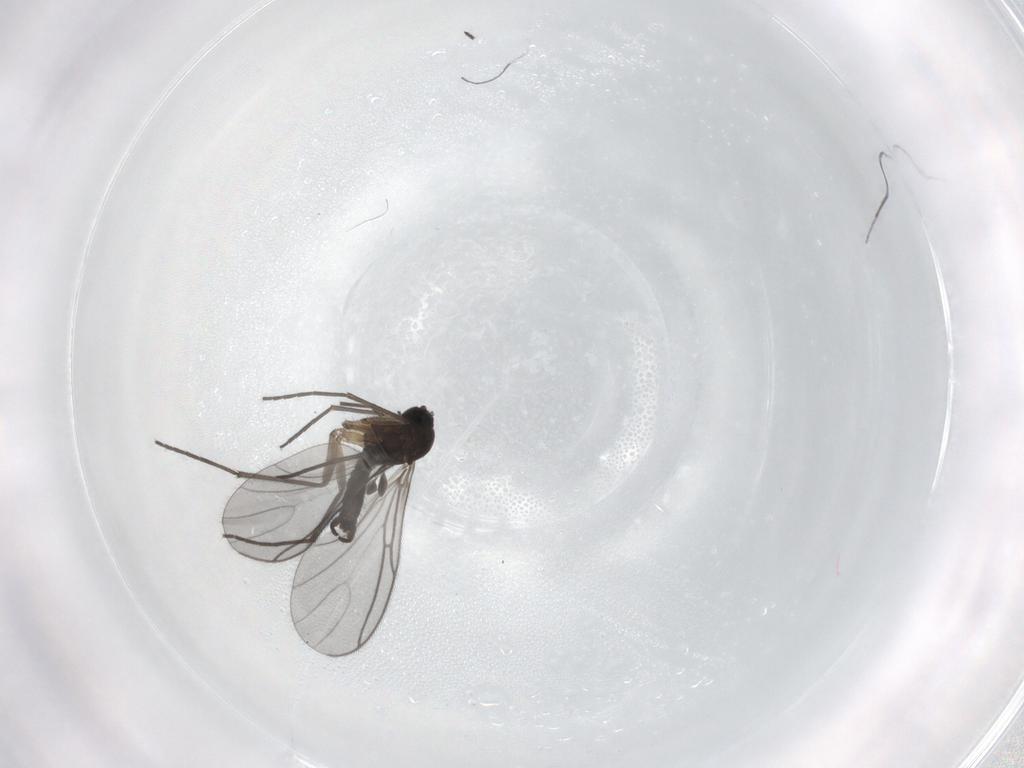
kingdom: Animalia
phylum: Arthropoda
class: Insecta
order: Diptera
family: Sciaridae
